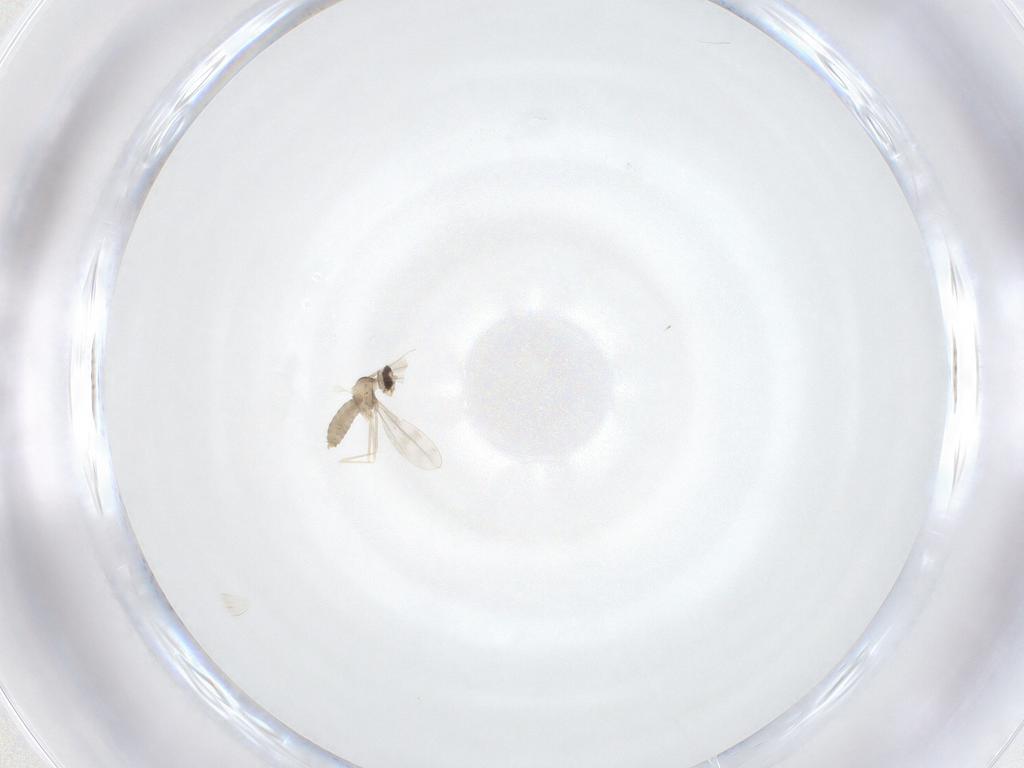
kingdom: Animalia
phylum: Arthropoda
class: Insecta
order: Diptera
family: Cecidomyiidae
